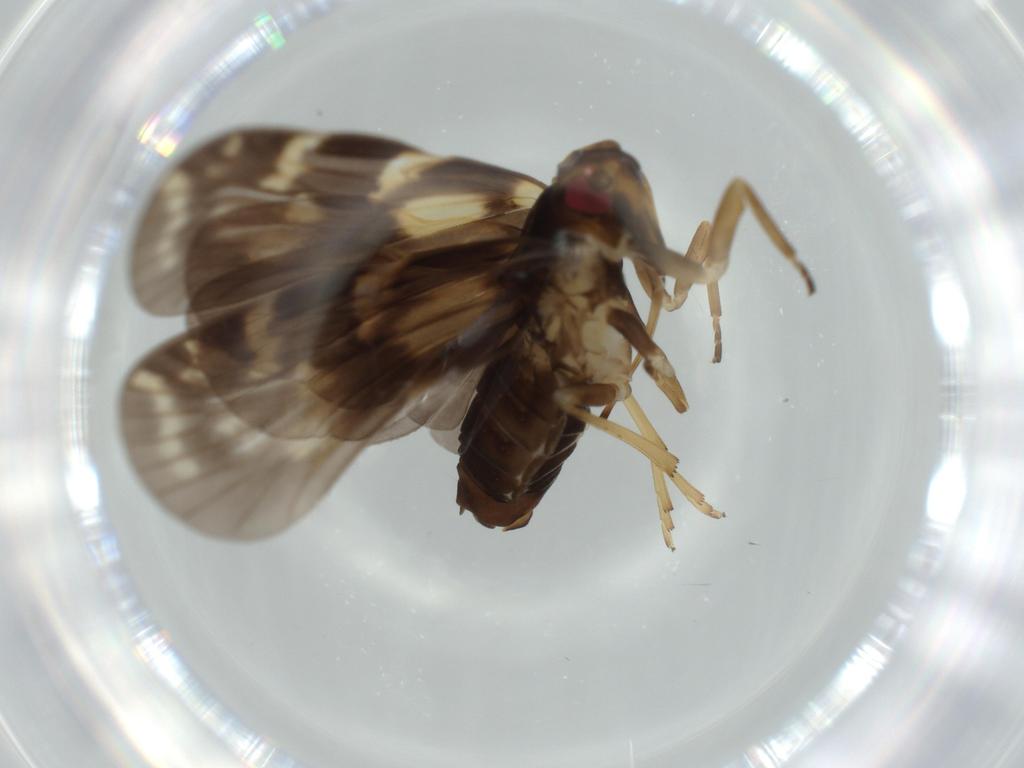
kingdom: Animalia
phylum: Arthropoda
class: Insecta
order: Hemiptera
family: Cixiidae
